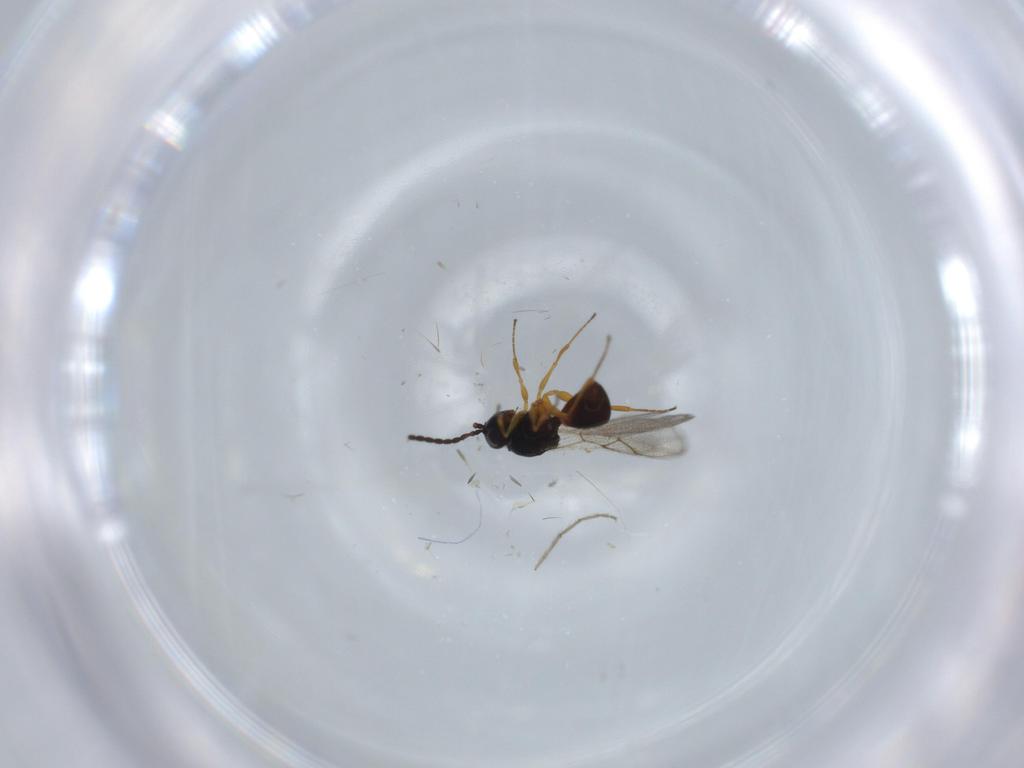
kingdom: Animalia
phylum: Arthropoda
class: Insecta
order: Hymenoptera
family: Figitidae
